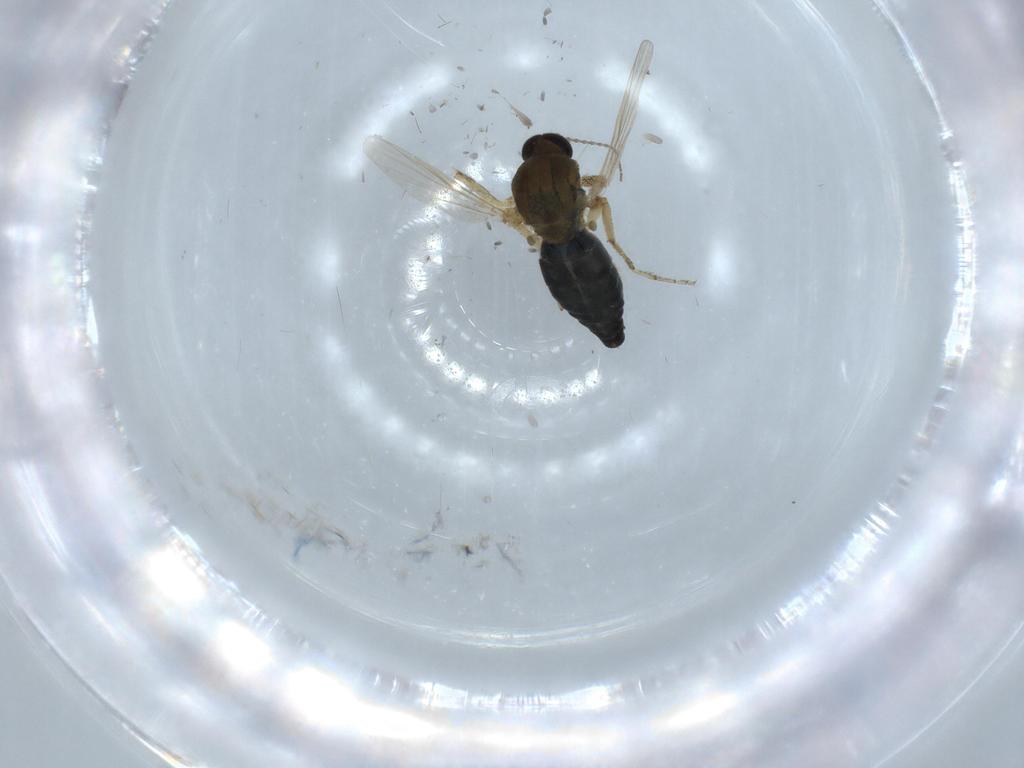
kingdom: Animalia
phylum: Arthropoda
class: Insecta
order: Diptera
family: Ceratopogonidae
